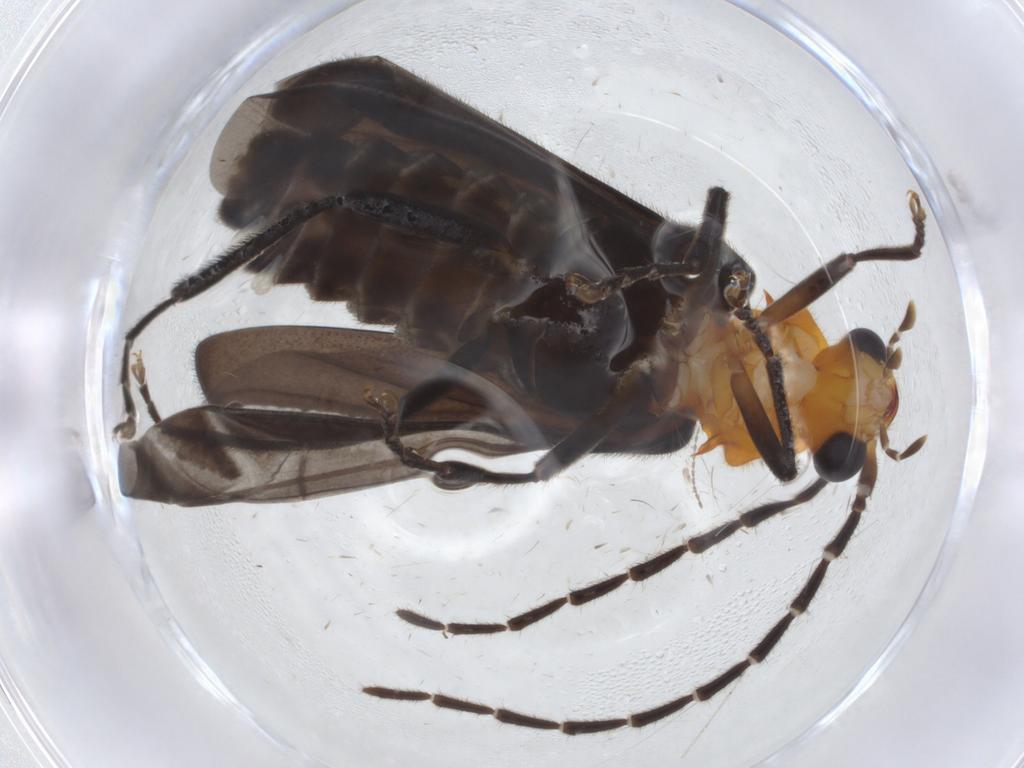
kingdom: Animalia
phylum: Arthropoda
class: Insecta
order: Coleoptera
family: Cantharidae
